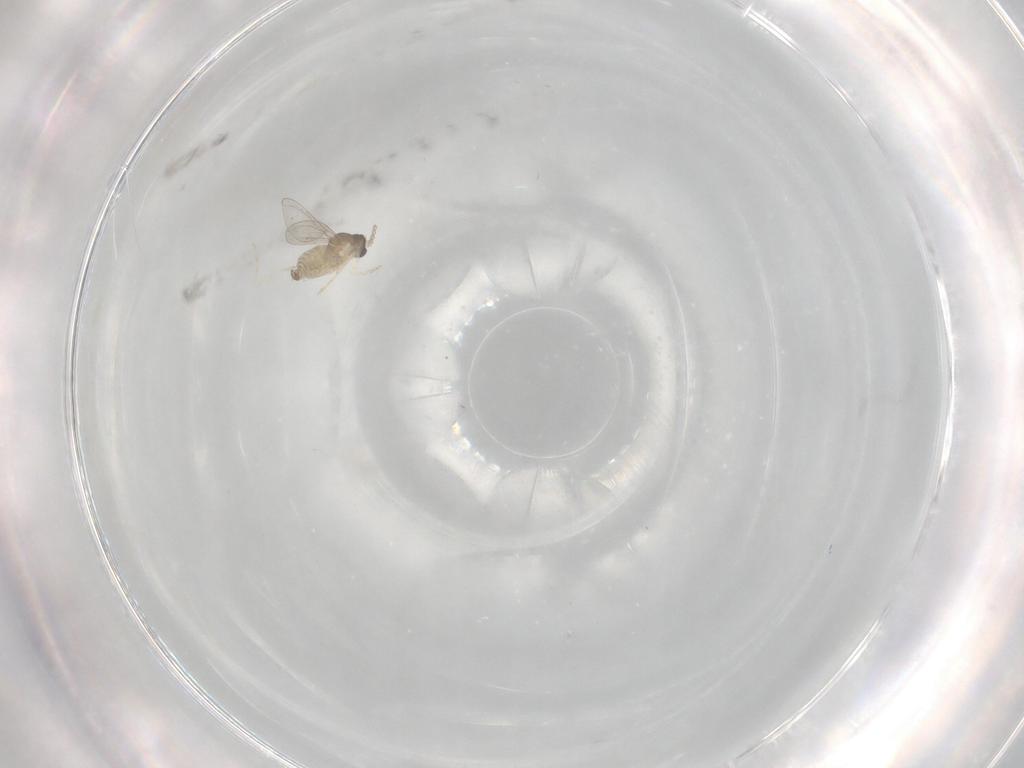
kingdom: Animalia
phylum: Arthropoda
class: Insecta
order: Diptera
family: Cecidomyiidae
